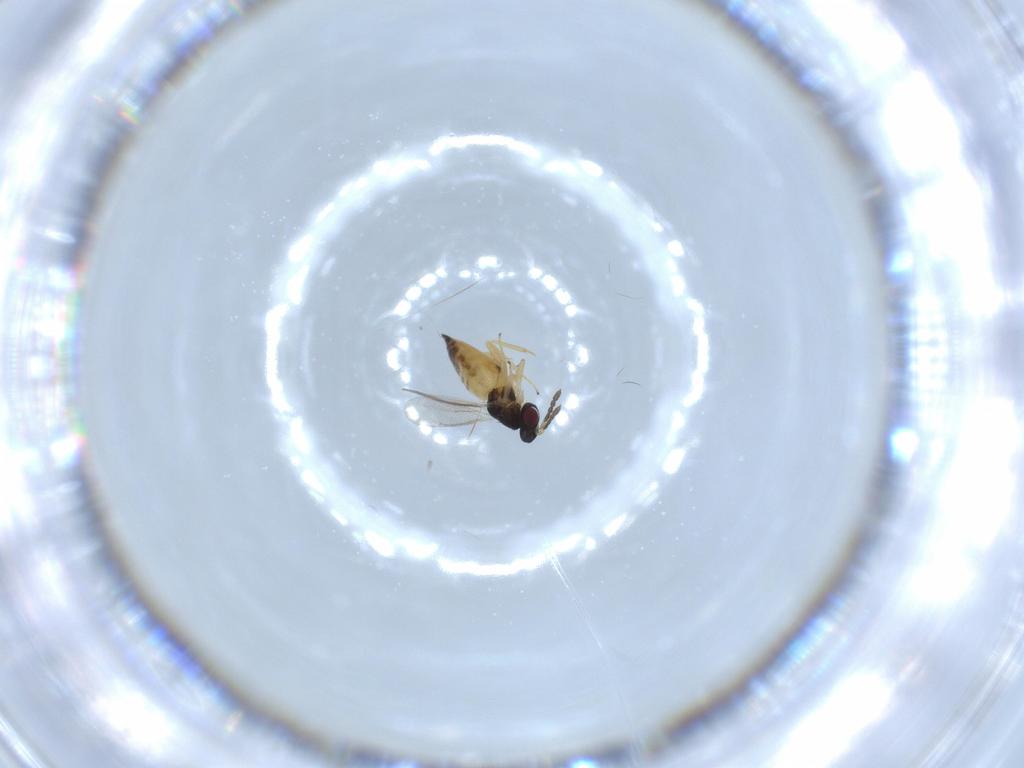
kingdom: Animalia
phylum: Arthropoda
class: Insecta
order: Hymenoptera
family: Eulophidae
